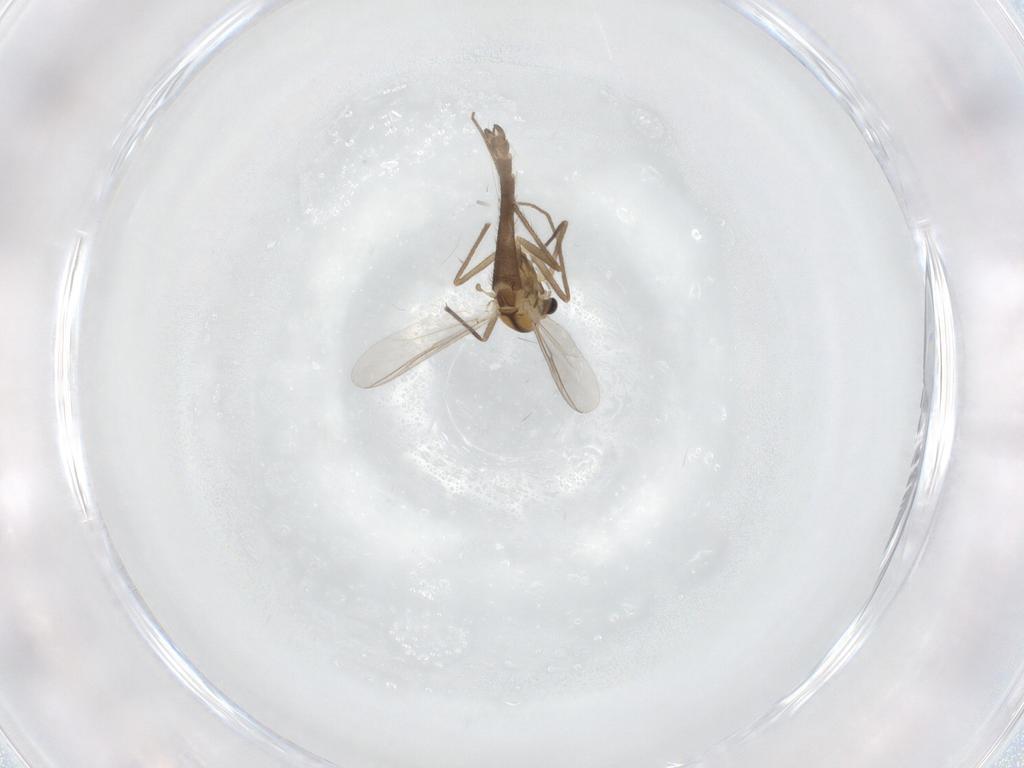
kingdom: Animalia
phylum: Arthropoda
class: Insecta
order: Diptera
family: Chironomidae
